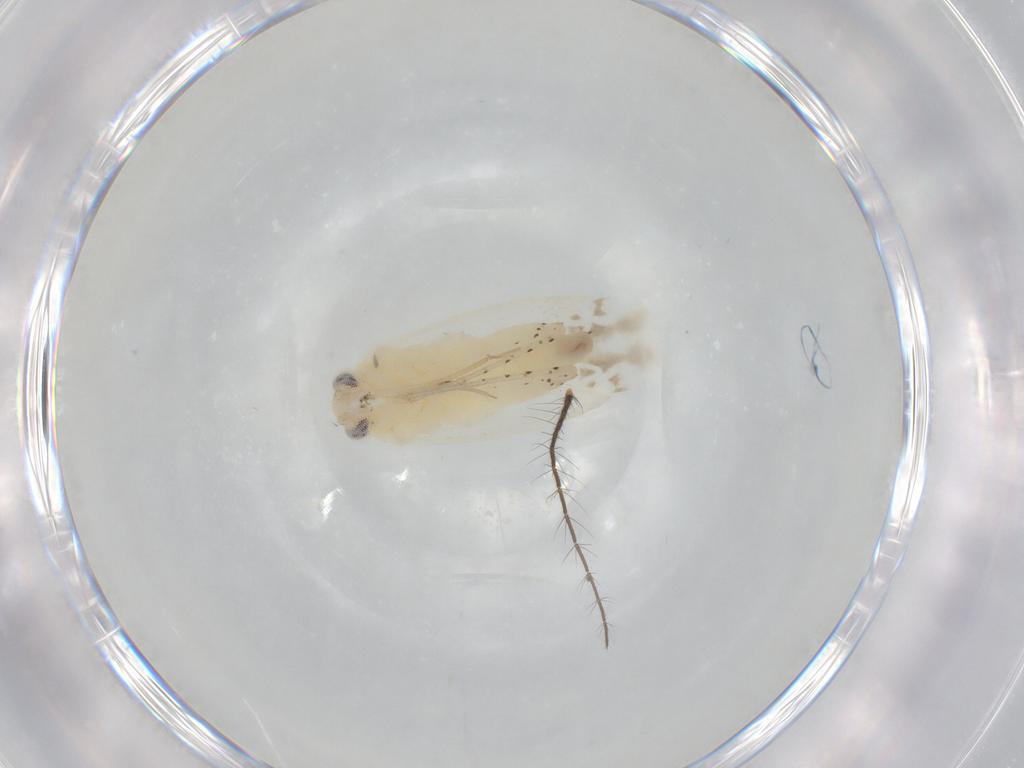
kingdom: Animalia
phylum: Arthropoda
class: Insecta
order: Hemiptera
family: Miridae
